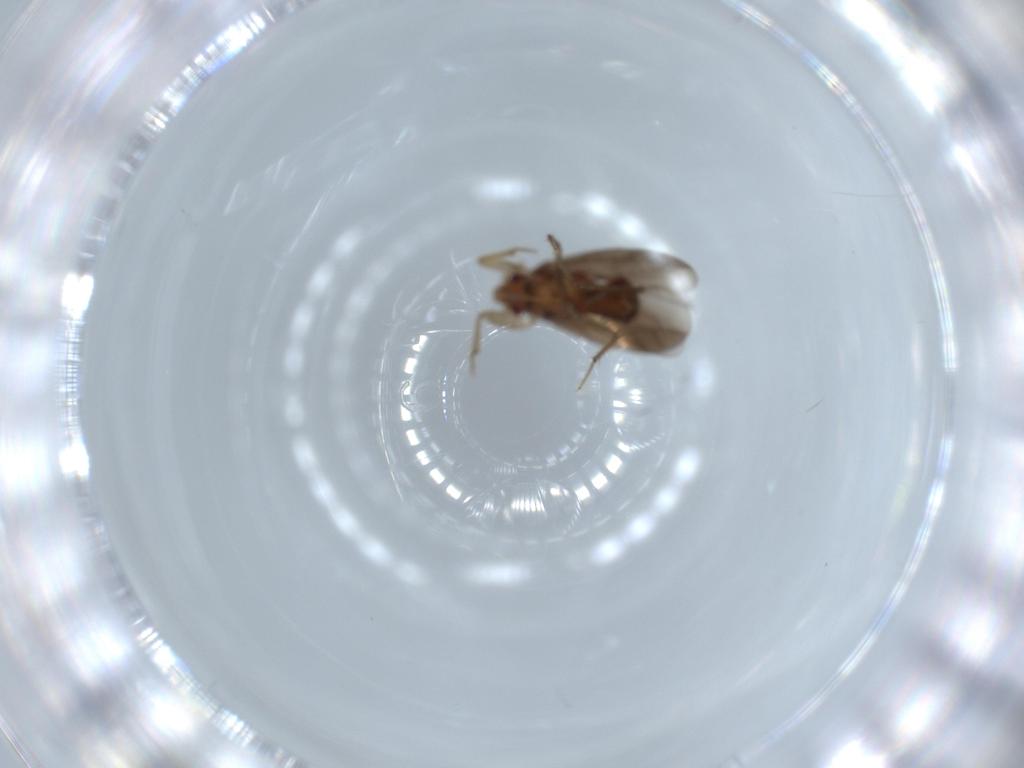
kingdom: Animalia
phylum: Arthropoda
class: Insecta
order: Hemiptera
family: Ceratocombidae
